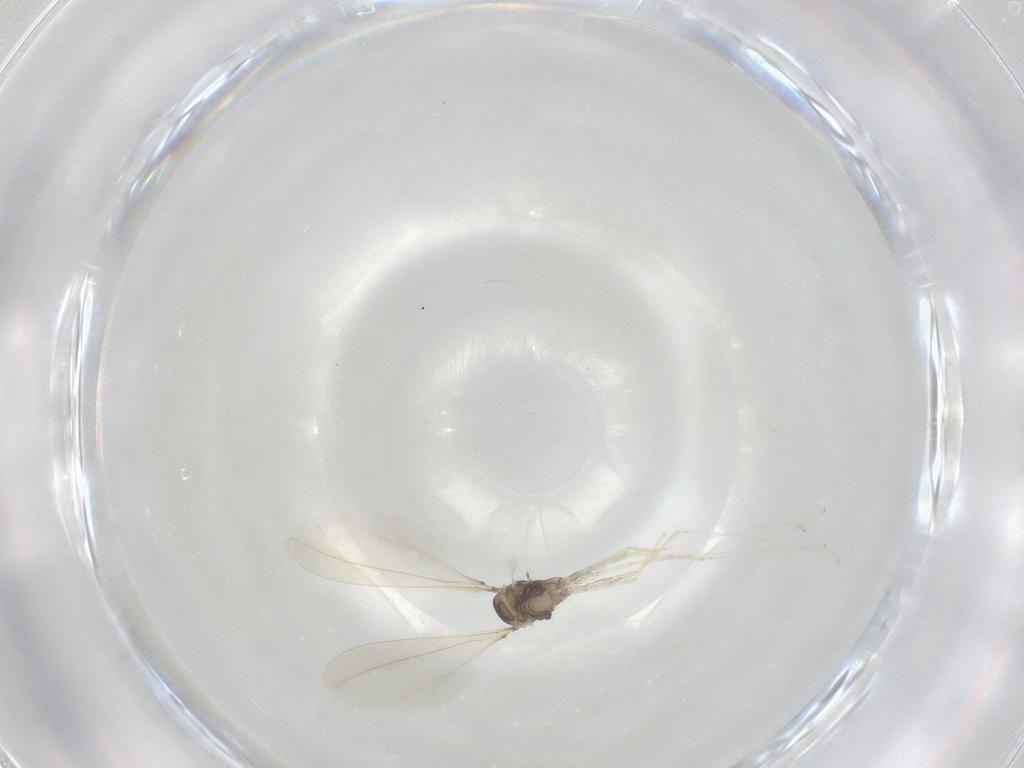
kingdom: Animalia
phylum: Arthropoda
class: Insecta
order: Diptera
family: Cecidomyiidae
